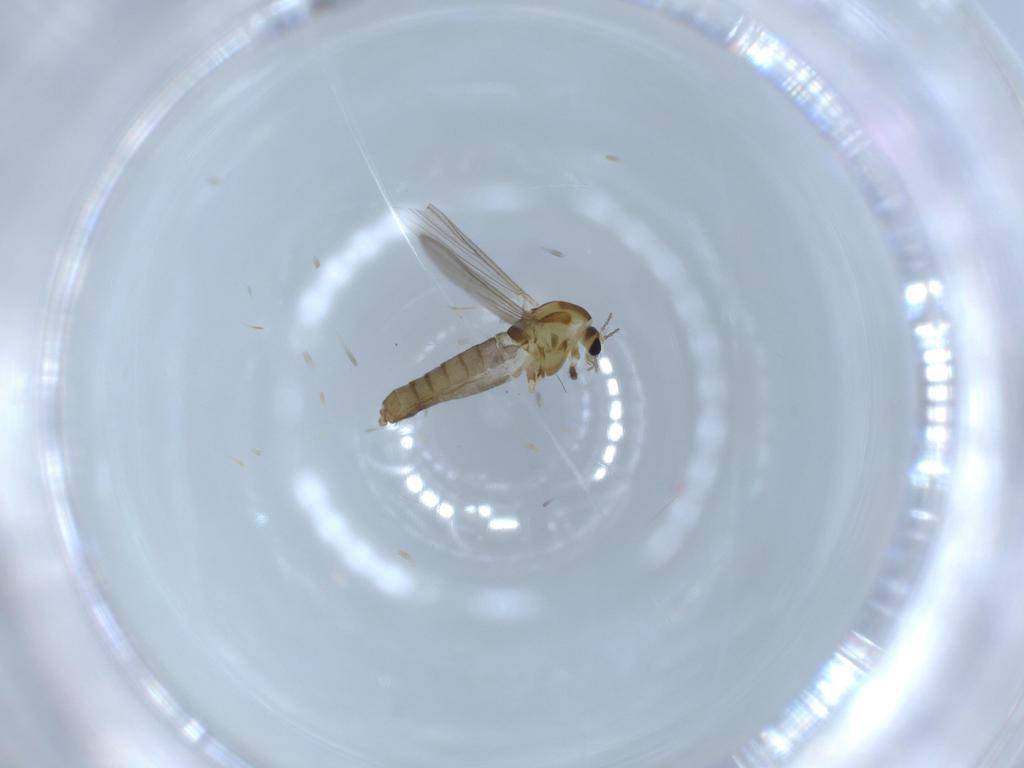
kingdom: Animalia
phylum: Arthropoda
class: Insecta
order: Diptera
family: Chironomidae
